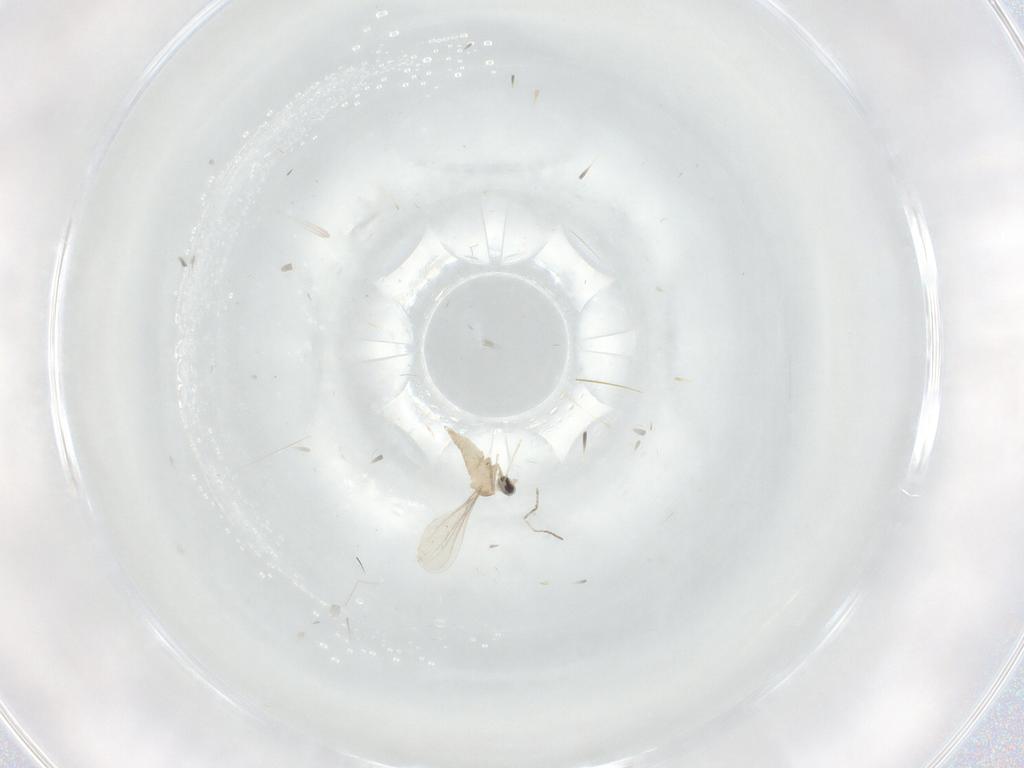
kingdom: Animalia
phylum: Arthropoda
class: Insecta
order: Diptera
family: Cecidomyiidae
